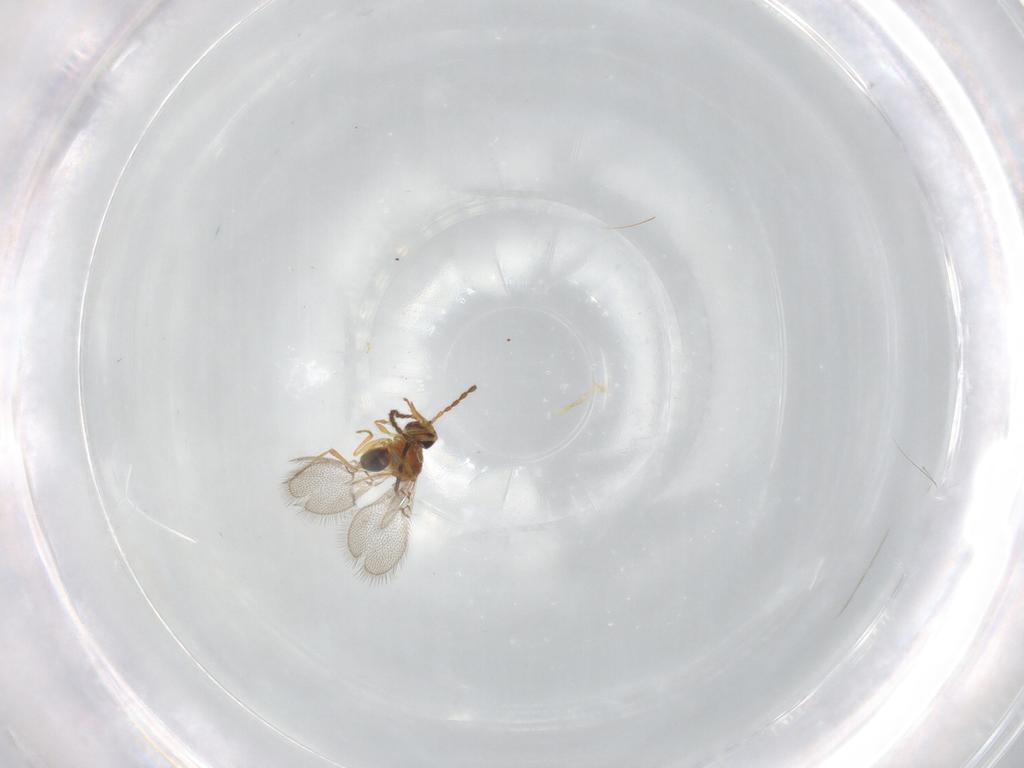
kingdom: Animalia
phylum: Arthropoda
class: Insecta
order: Hymenoptera
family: Figitidae
